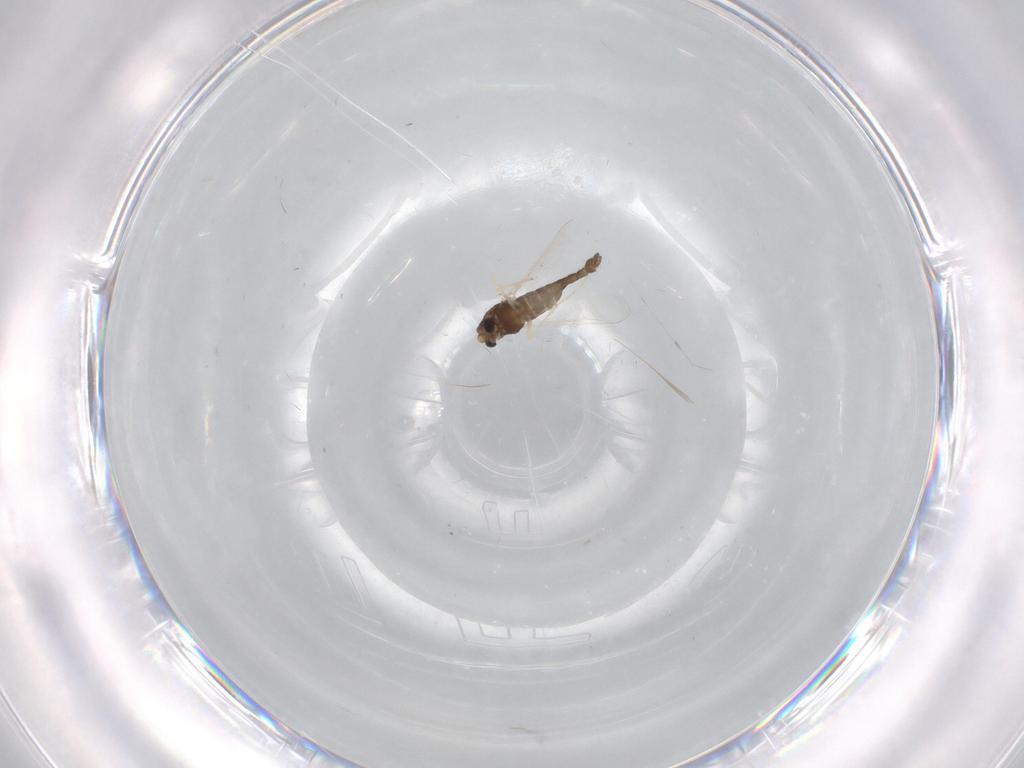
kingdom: Animalia
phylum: Arthropoda
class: Insecta
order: Diptera
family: Chironomidae
